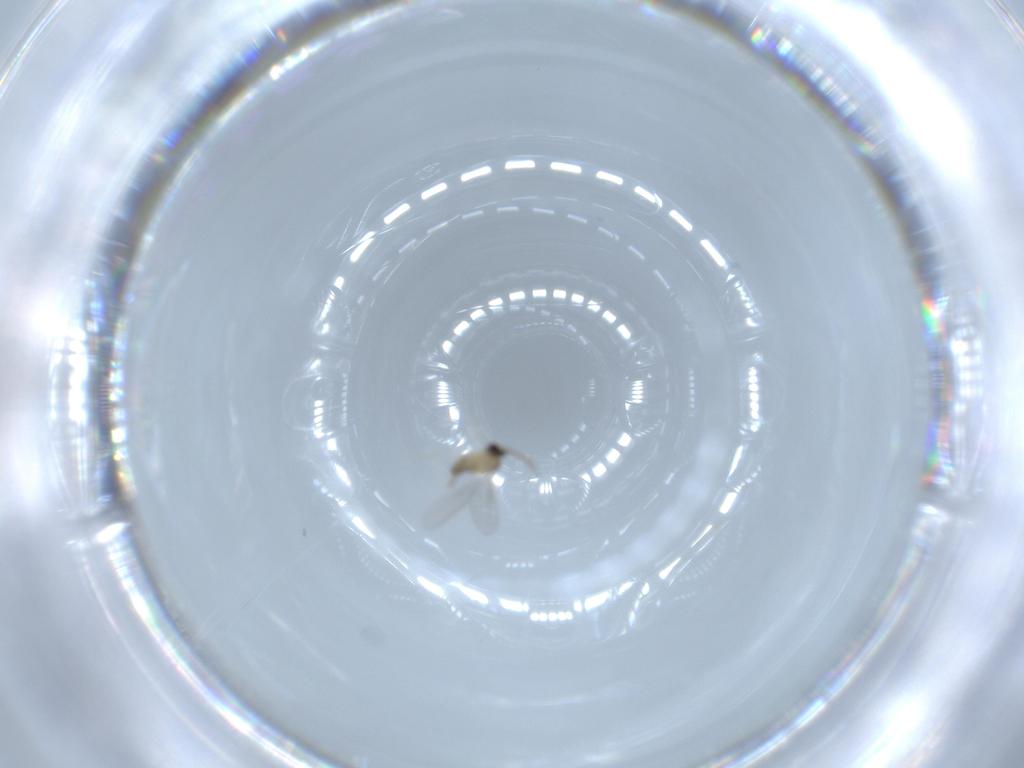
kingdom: Animalia
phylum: Arthropoda
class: Insecta
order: Diptera
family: Cecidomyiidae
